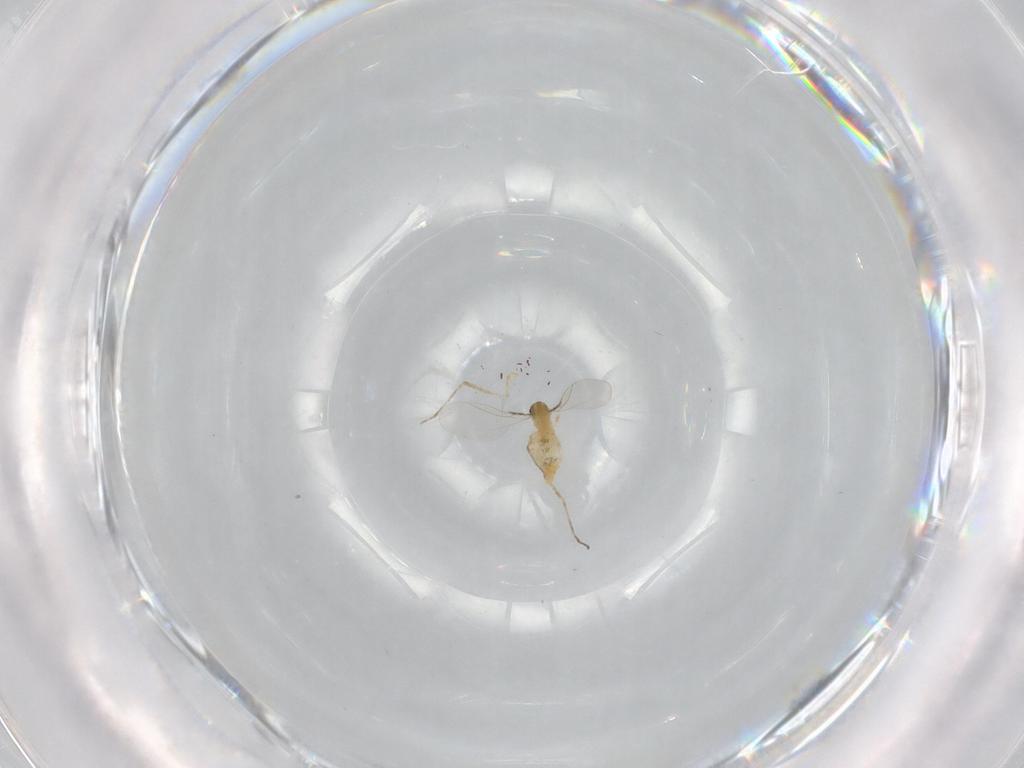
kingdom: Animalia
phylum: Arthropoda
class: Insecta
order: Diptera
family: Cecidomyiidae
